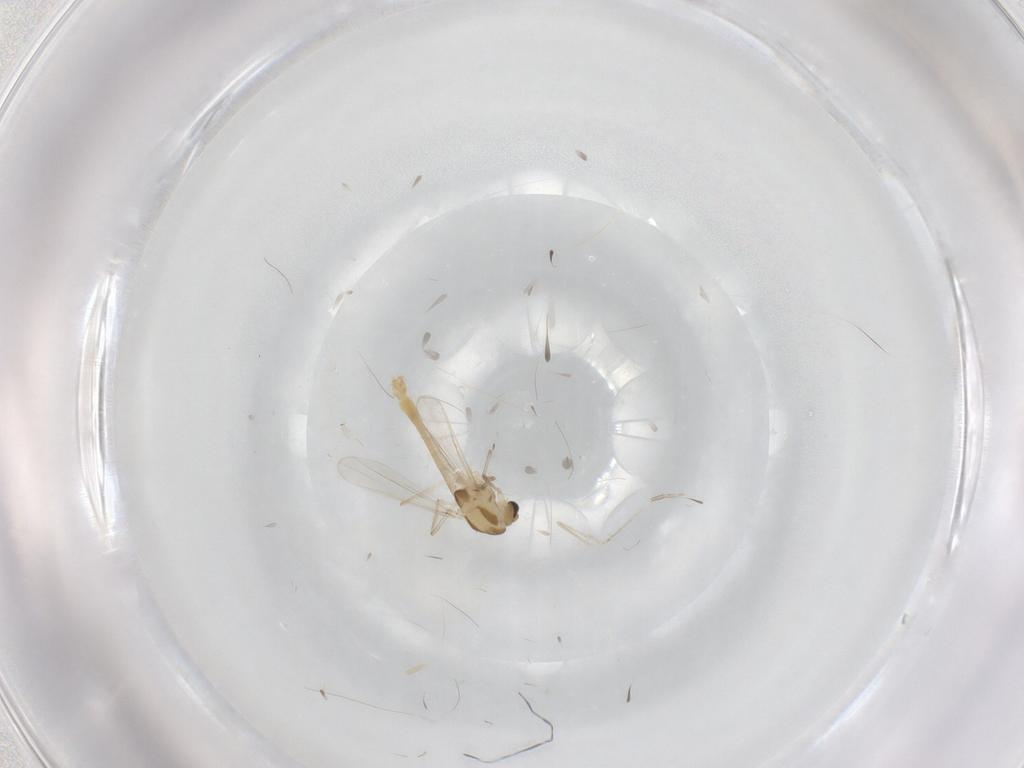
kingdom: Animalia
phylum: Arthropoda
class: Insecta
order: Diptera
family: Chironomidae
